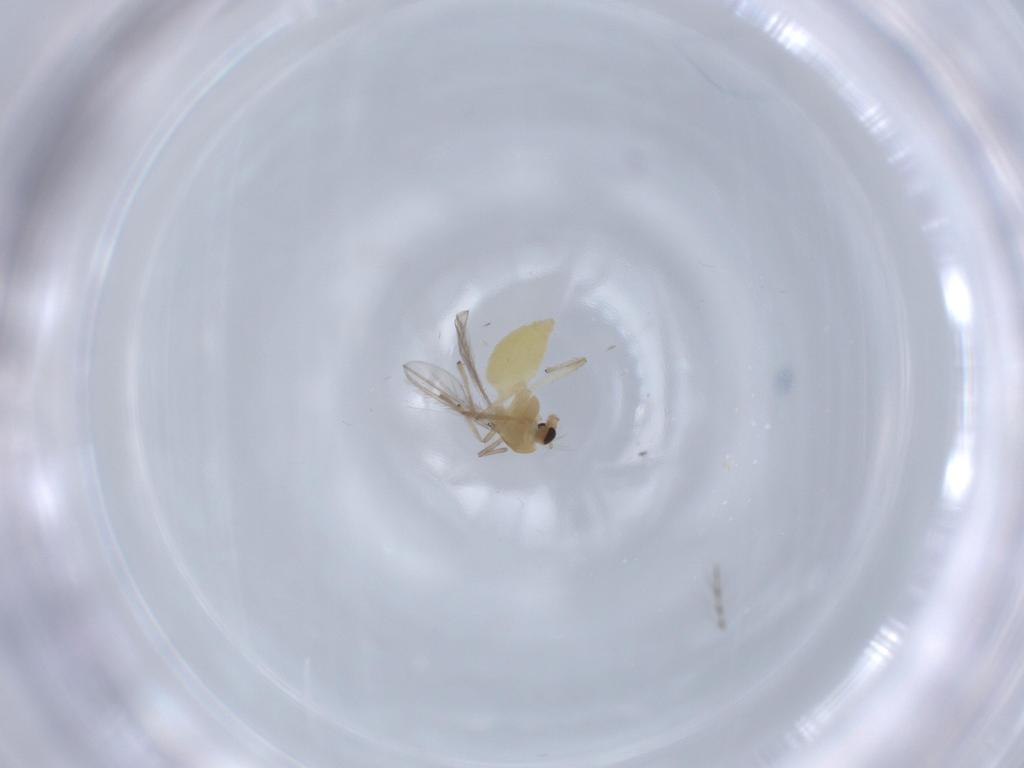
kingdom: Animalia
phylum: Arthropoda
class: Insecta
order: Diptera
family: Chironomidae
